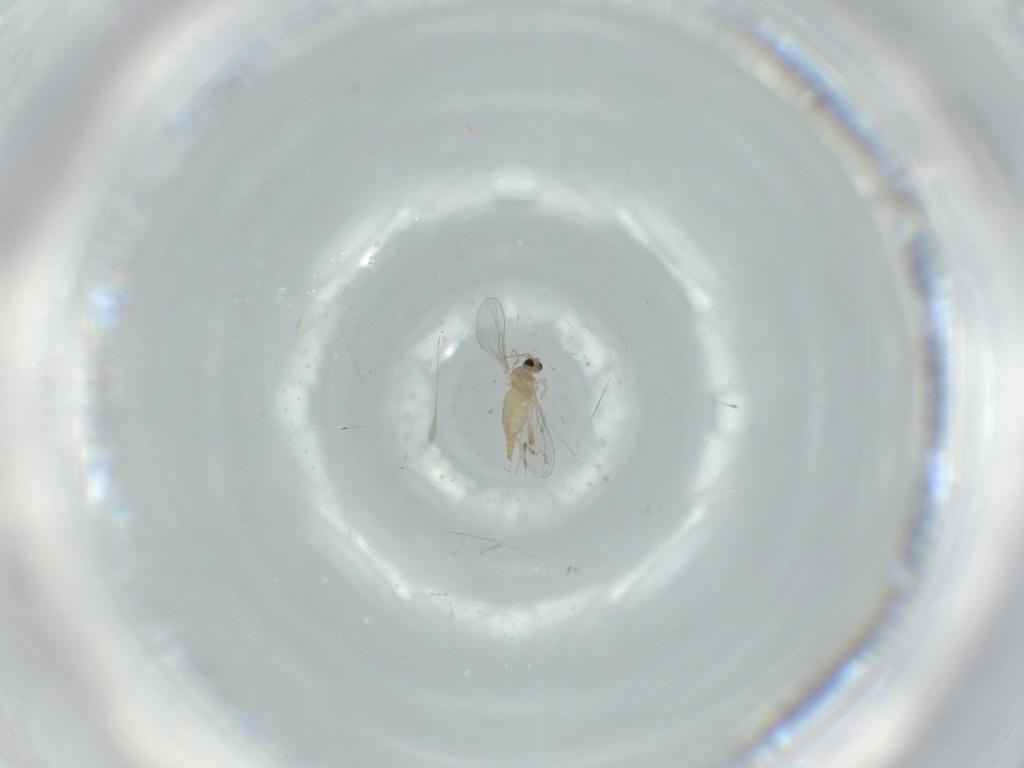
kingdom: Animalia
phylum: Arthropoda
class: Insecta
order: Diptera
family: Cecidomyiidae
